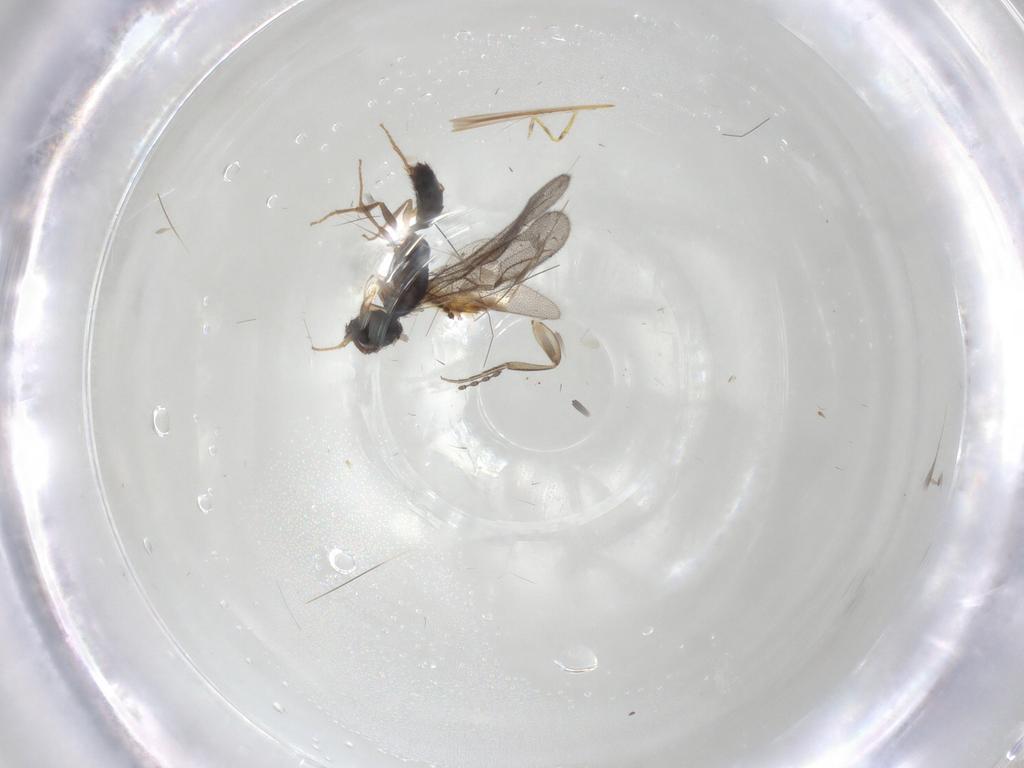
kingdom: Animalia
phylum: Arthropoda
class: Insecta
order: Hymenoptera
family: Bethylidae
